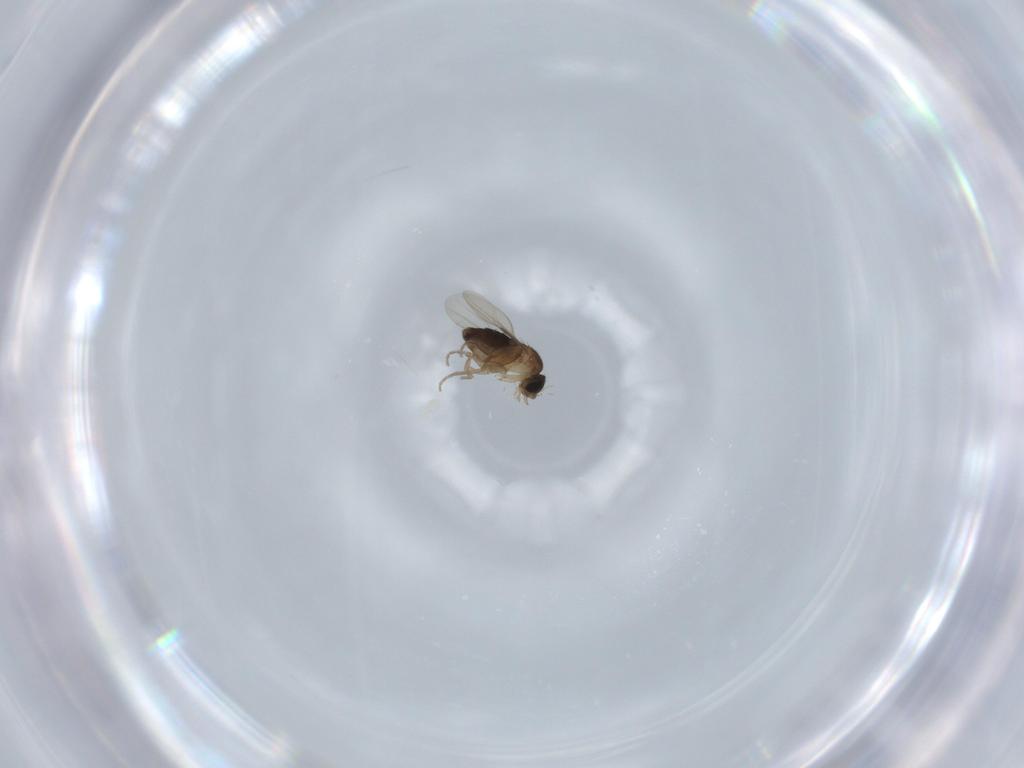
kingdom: Animalia
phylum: Arthropoda
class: Insecta
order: Diptera
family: Phoridae
